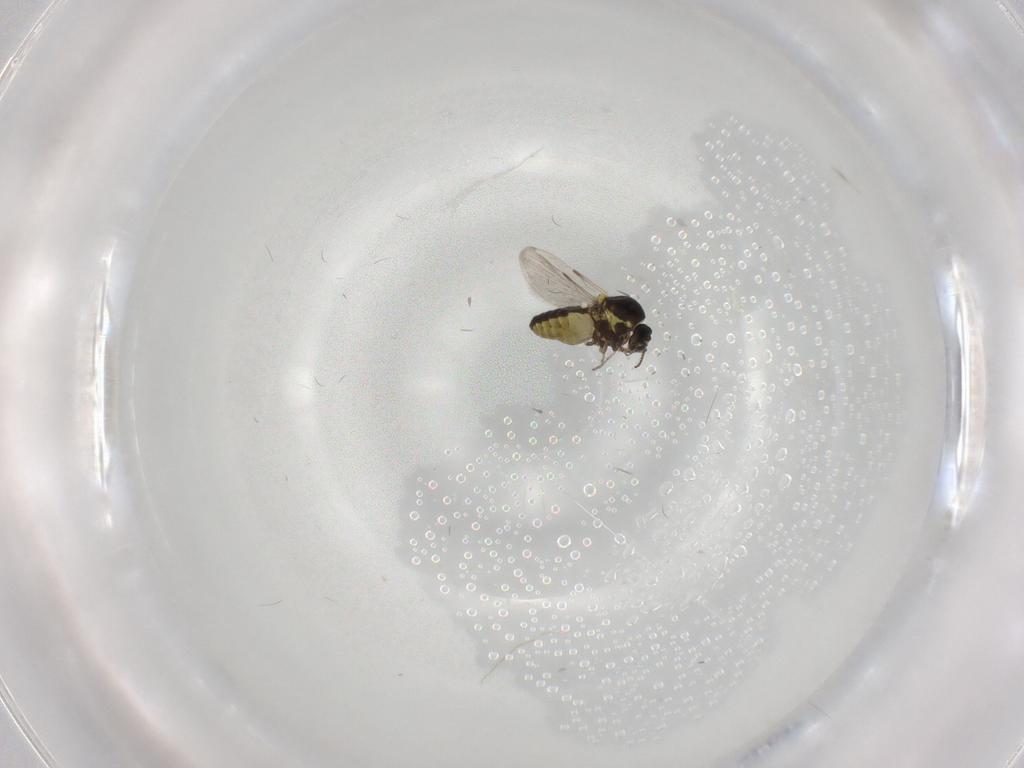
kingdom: Animalia
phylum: Arthropoda
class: Insecta
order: Diptera
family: Ceratopogonidae
